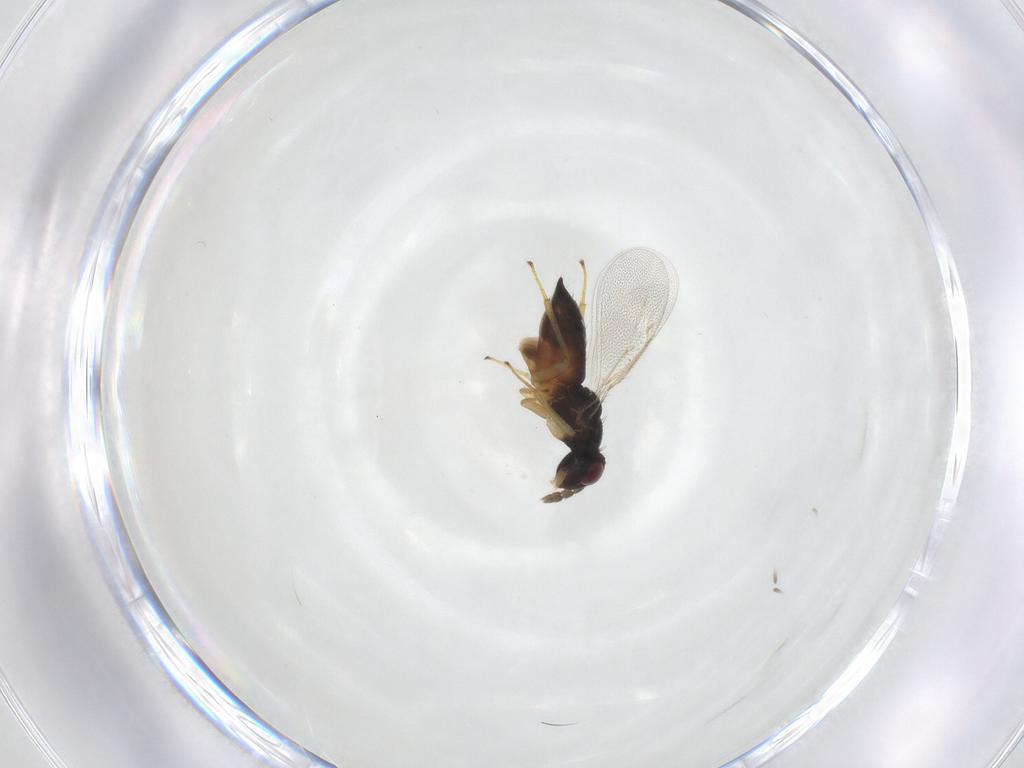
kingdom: Animalia
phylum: Arthropoda
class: Insecta
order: Hymenoptera
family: Eulophidae
